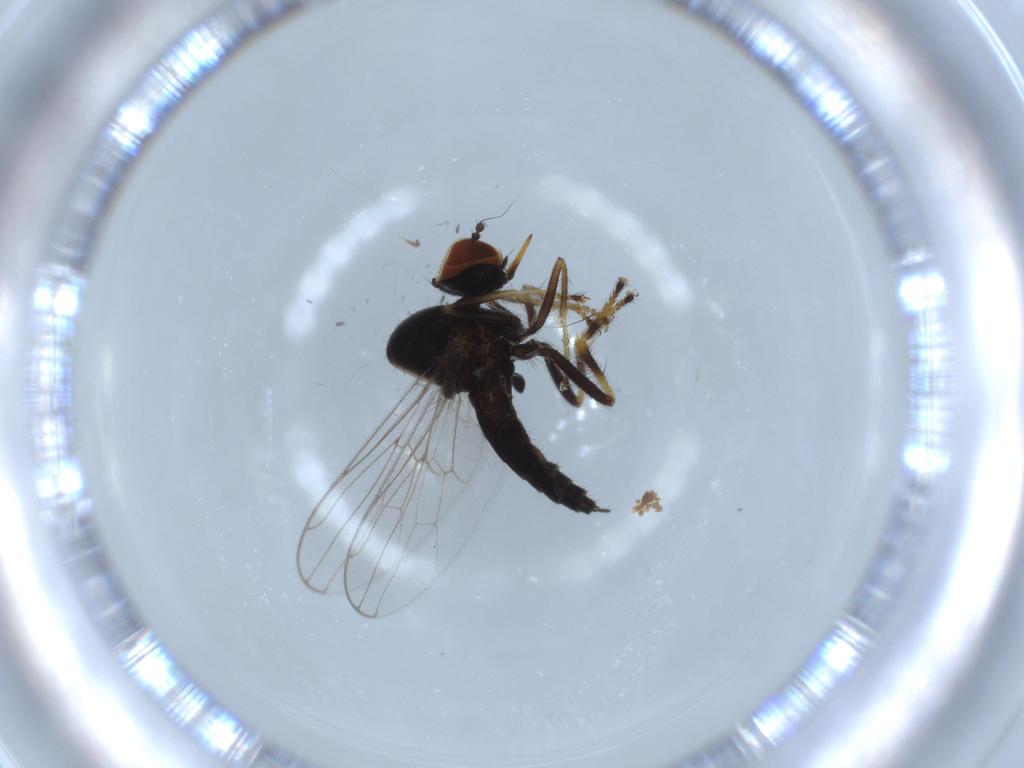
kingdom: Animalia
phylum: Arthropoda
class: Insecta
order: Diptera
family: Hybotidae
